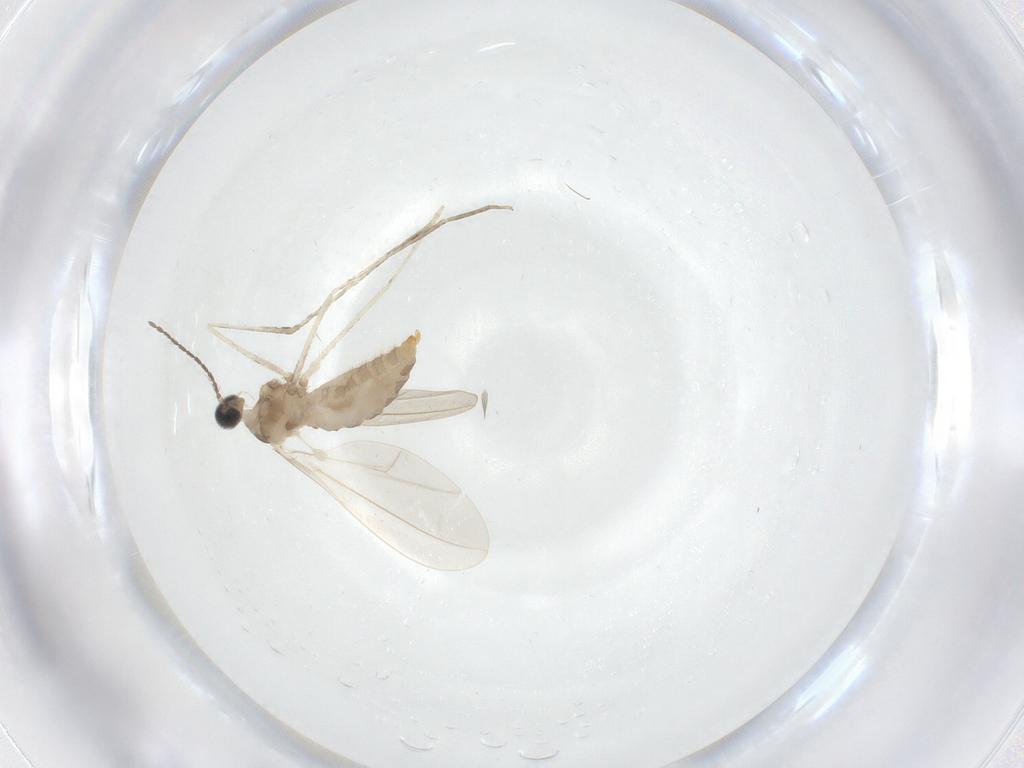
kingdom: Animalia
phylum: Arthropoda
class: Insecta
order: Diptera
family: Cecidomyiidae
